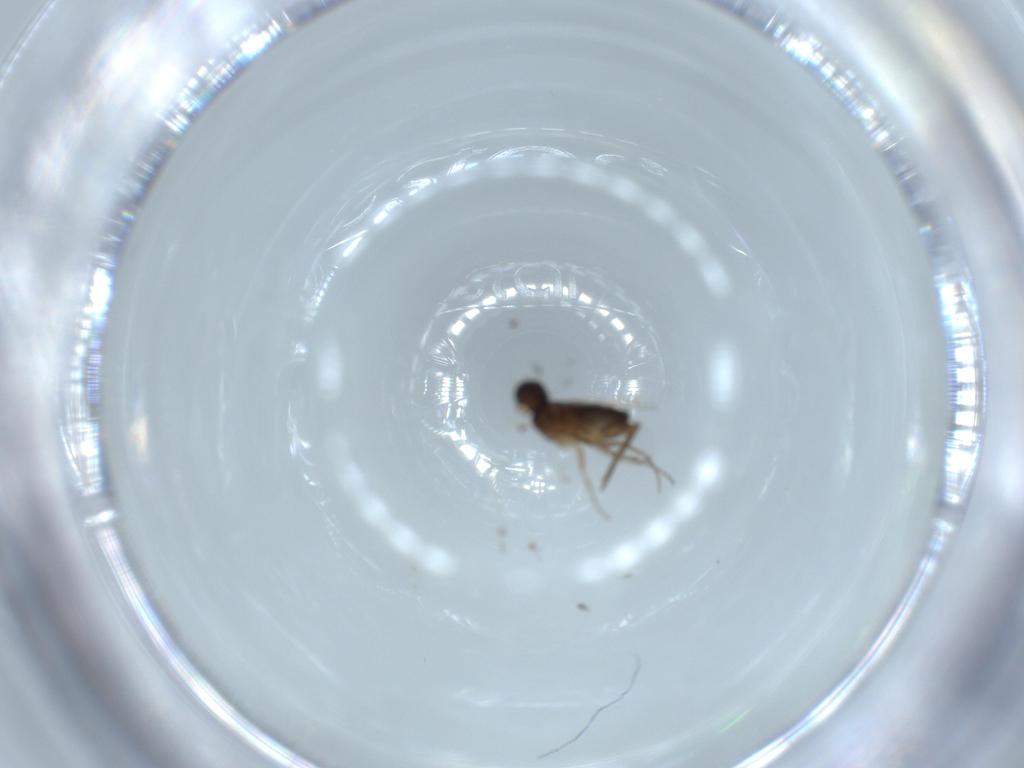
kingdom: Animalia
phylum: Arthropoda
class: Insecta
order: Diptera
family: Phoridae
